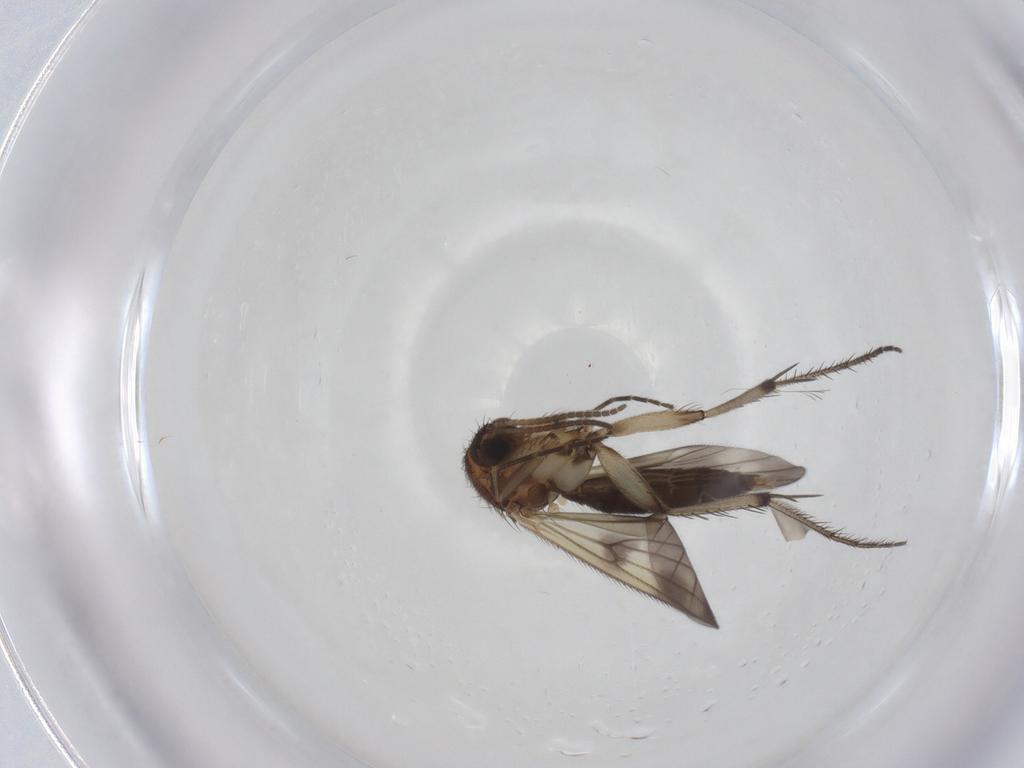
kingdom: Animalia
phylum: Arthropoda
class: Insecta
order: Diptera
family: Mycetophilidae
